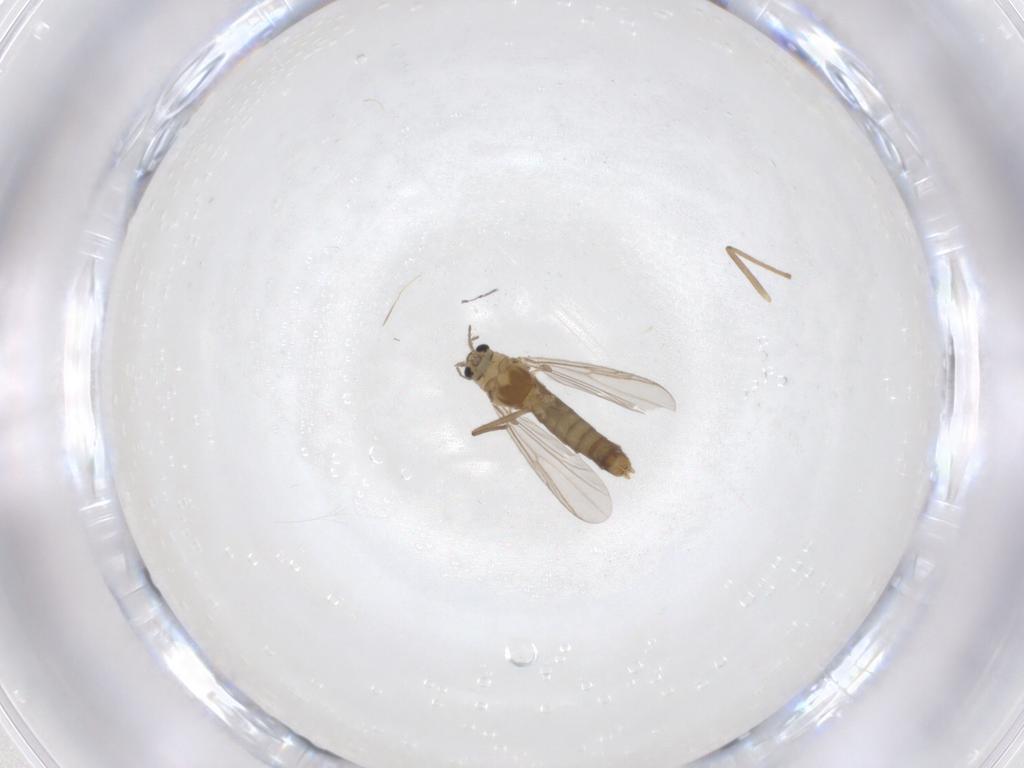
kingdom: Animalia
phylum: Arthropoda
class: Insecta
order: Diptera
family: Chironomidae
